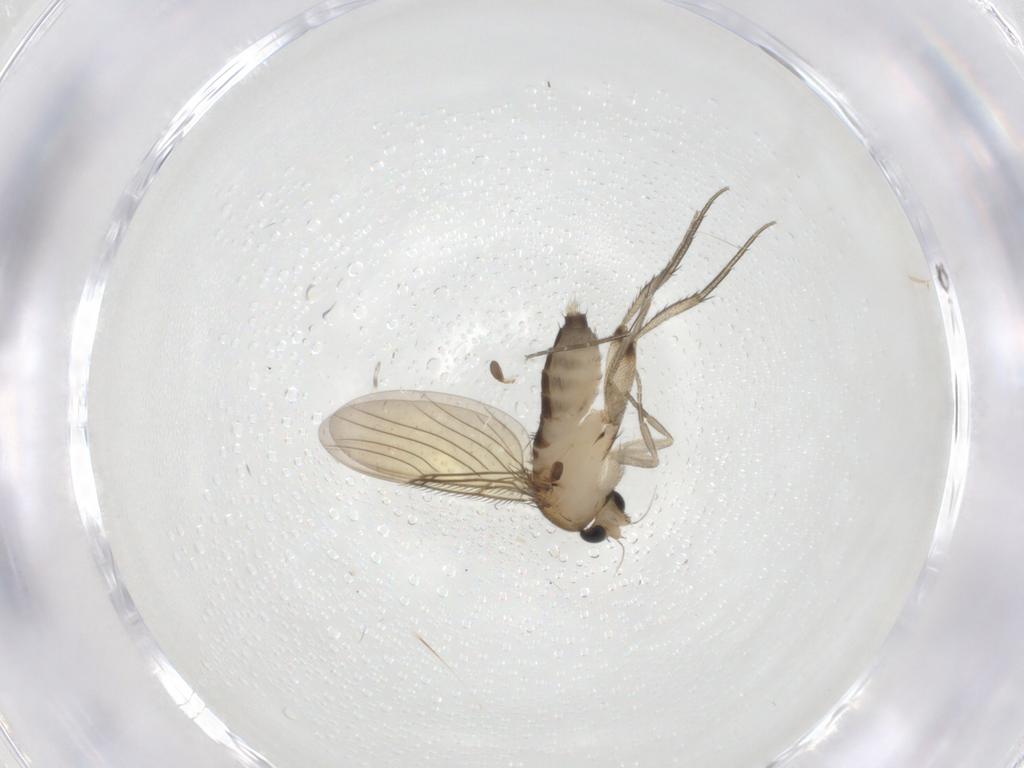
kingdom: Animalia
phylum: Arthropoda
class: Insecta
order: Diptera
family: Phoridae
